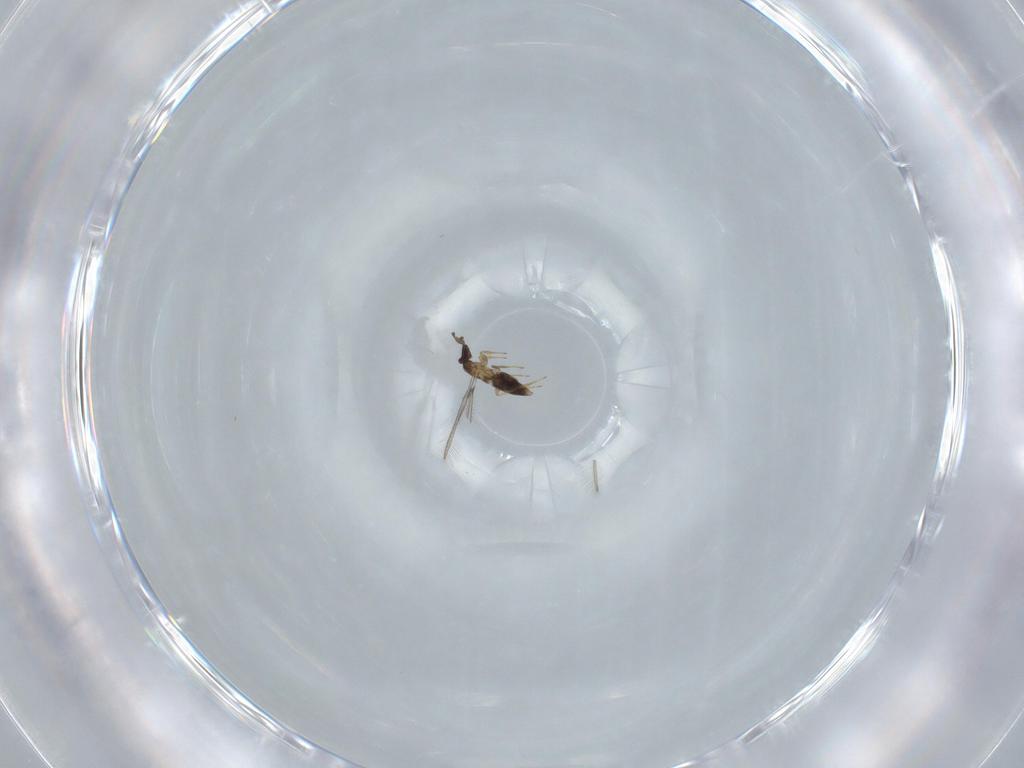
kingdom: Animalia
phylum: Arthropoda
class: Insecta
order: Hymenoptera
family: Mymaridae
